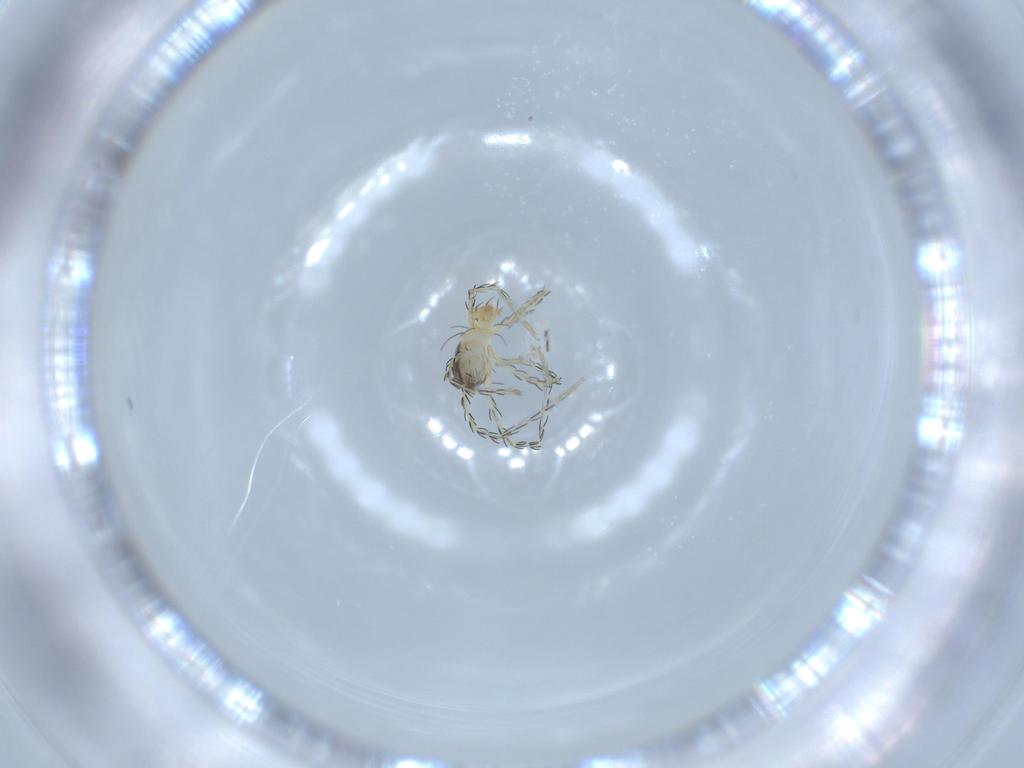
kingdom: Animalia
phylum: Arthropoda
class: Arachnida
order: Trombidiformes
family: Erythraeidae
